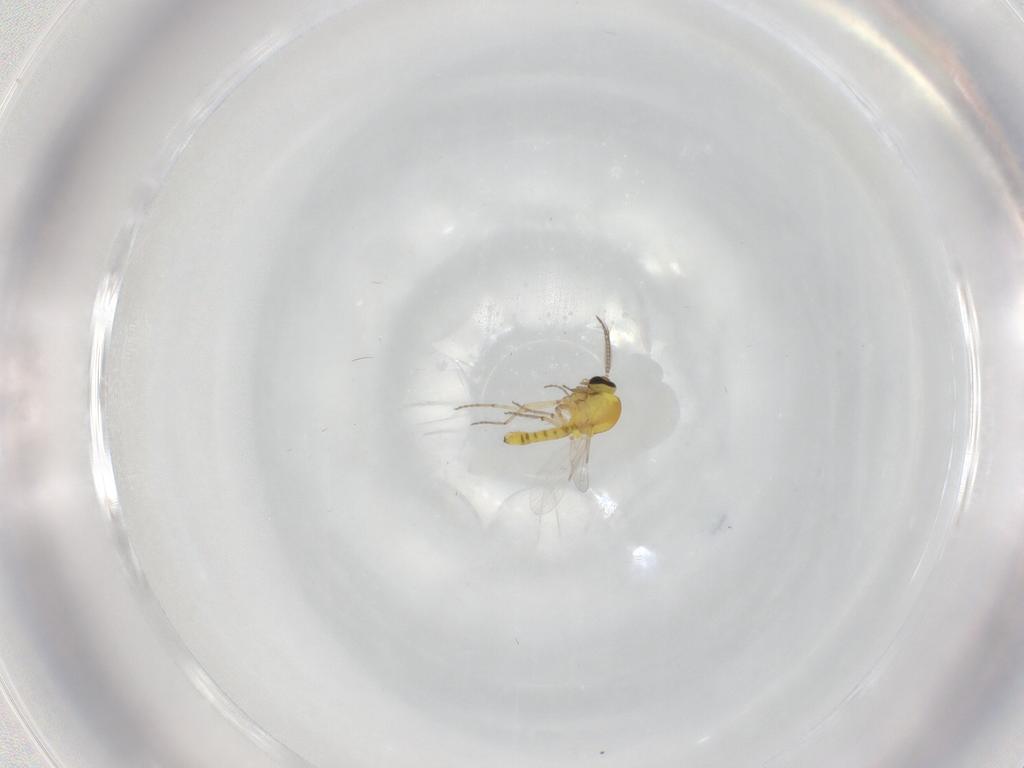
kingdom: Animalia
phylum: Arthropoda
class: Insecta
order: Diptera
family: Ceratopogonidae
